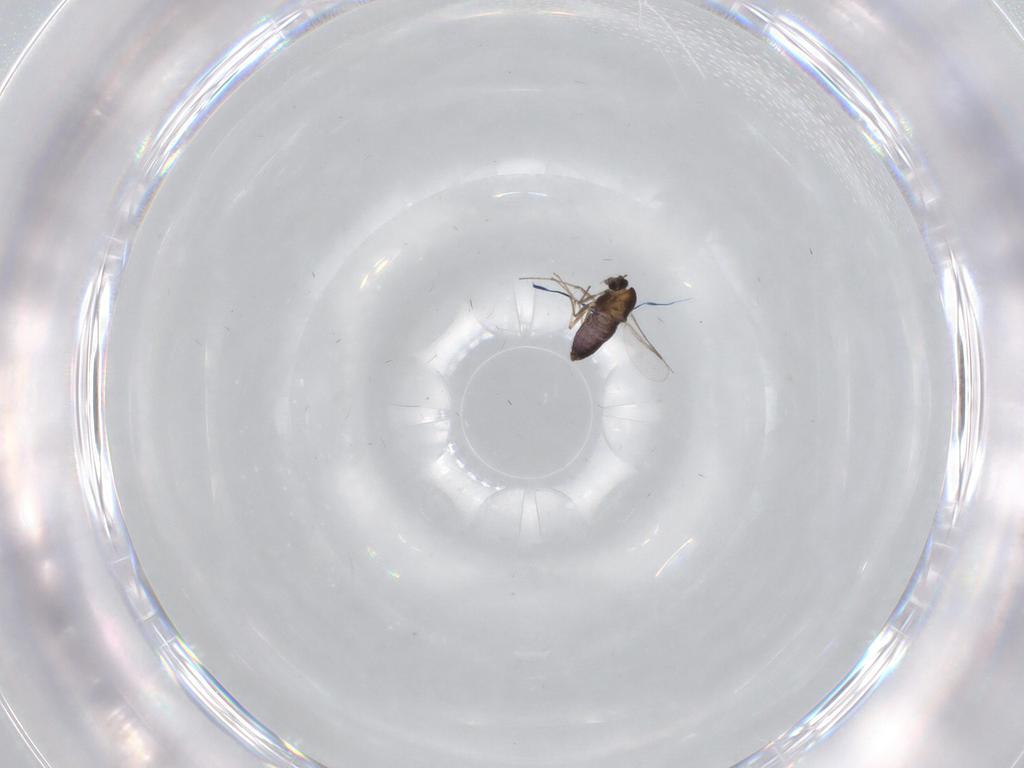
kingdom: Animalia
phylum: Arthropoda
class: Insecta
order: Diptera
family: Chironomidae
